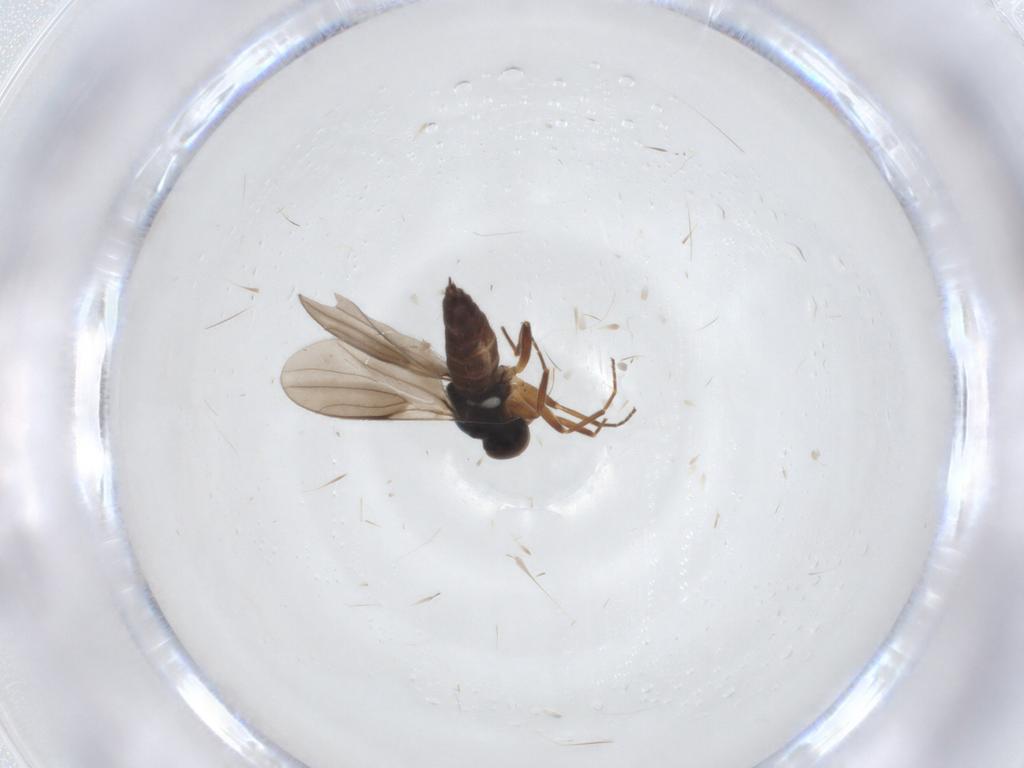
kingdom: Animalia
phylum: Arthropoda
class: Insecta
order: Diptera
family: Hybotidae
